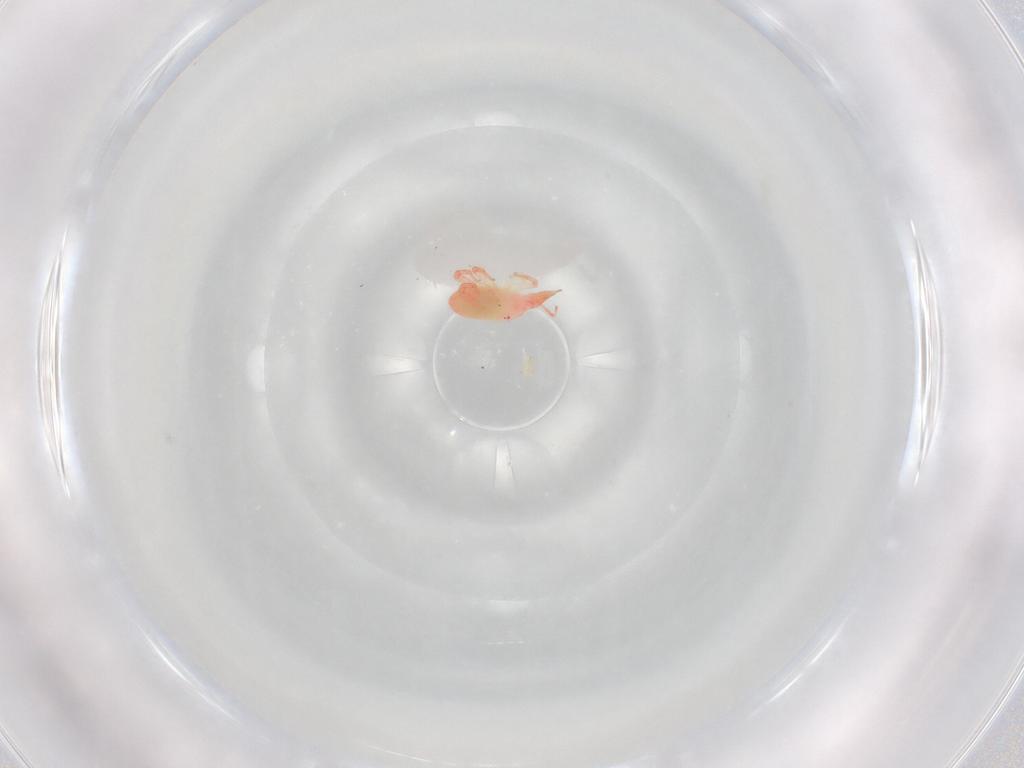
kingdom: Animalia
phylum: Arthropoda
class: Arachnida
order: Trombidiformes
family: Bdellidae
